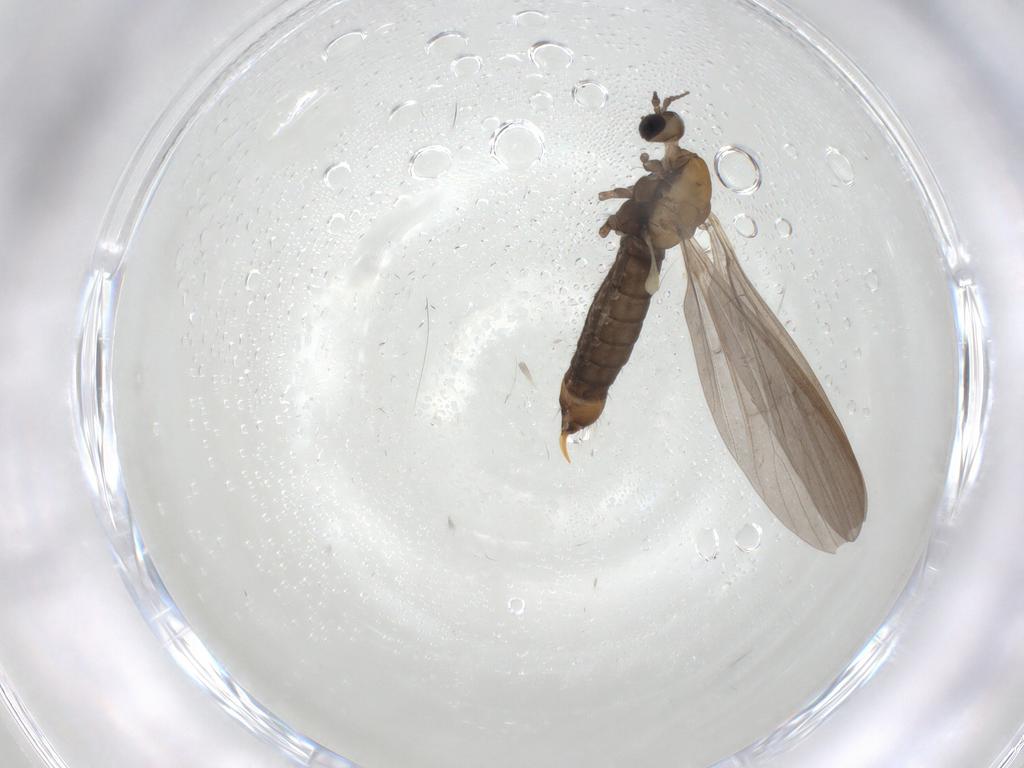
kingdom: Animalia
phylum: Arthropoda
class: Insecta
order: Diptera
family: Limoniidae
